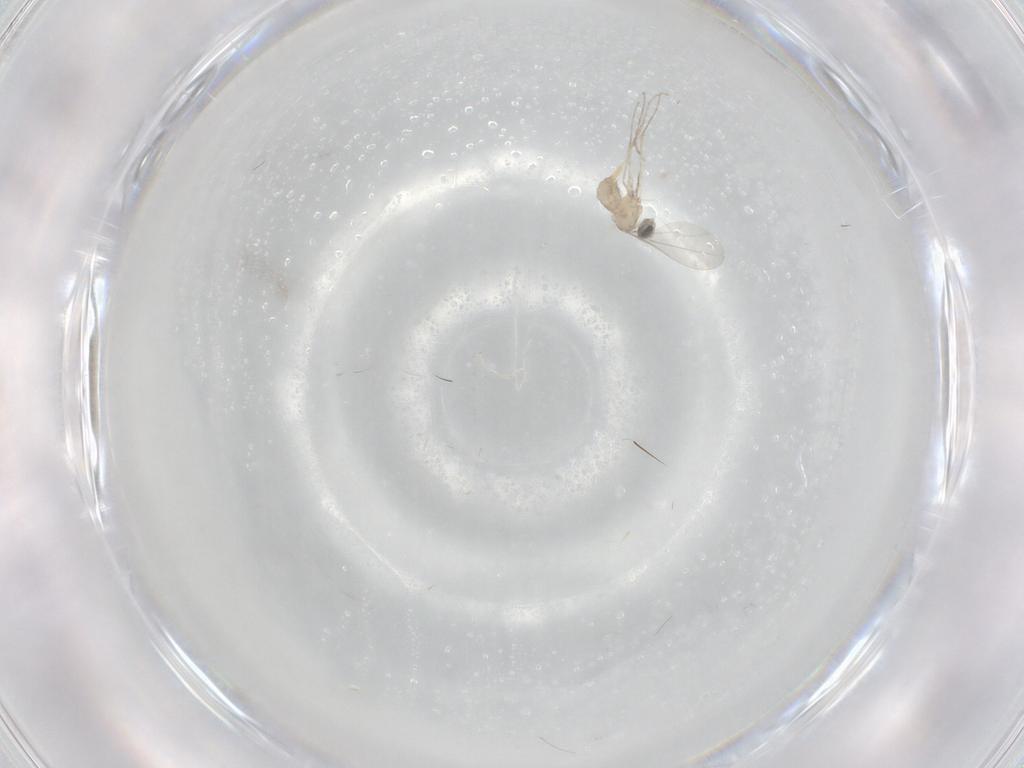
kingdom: Animalia
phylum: Arthropoda
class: Insecta
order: Diptera
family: Cecidomyiidae
